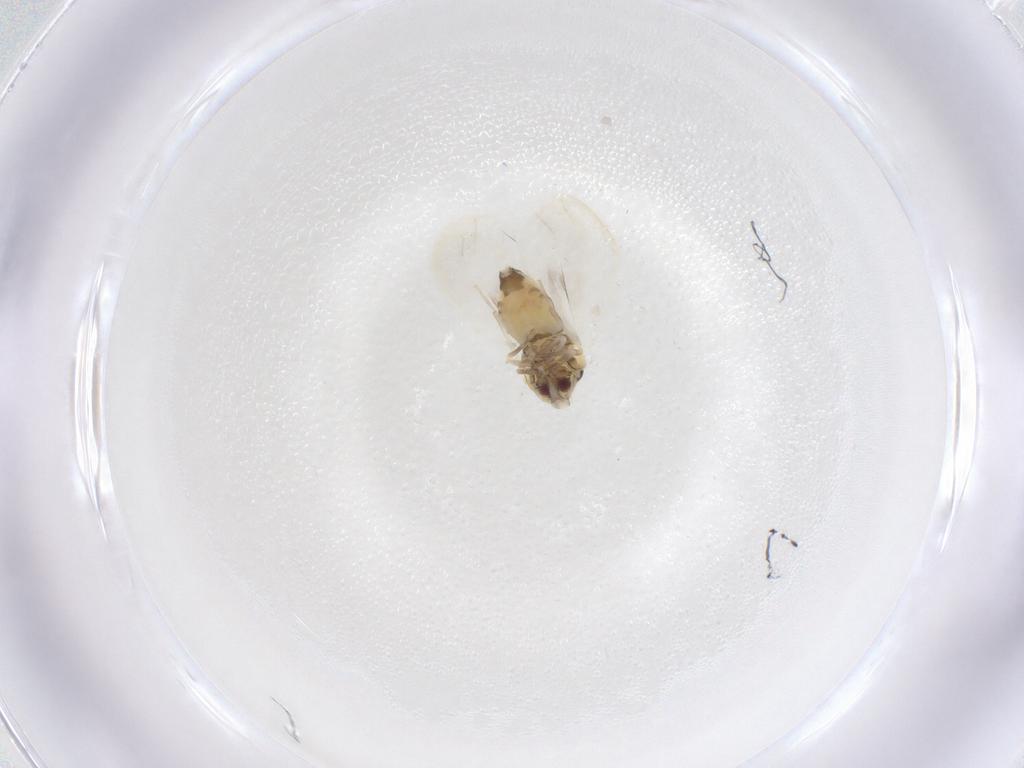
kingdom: Animalia
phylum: Arthropoda
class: Insecta
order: Hemiptera
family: Aleyrodidae
